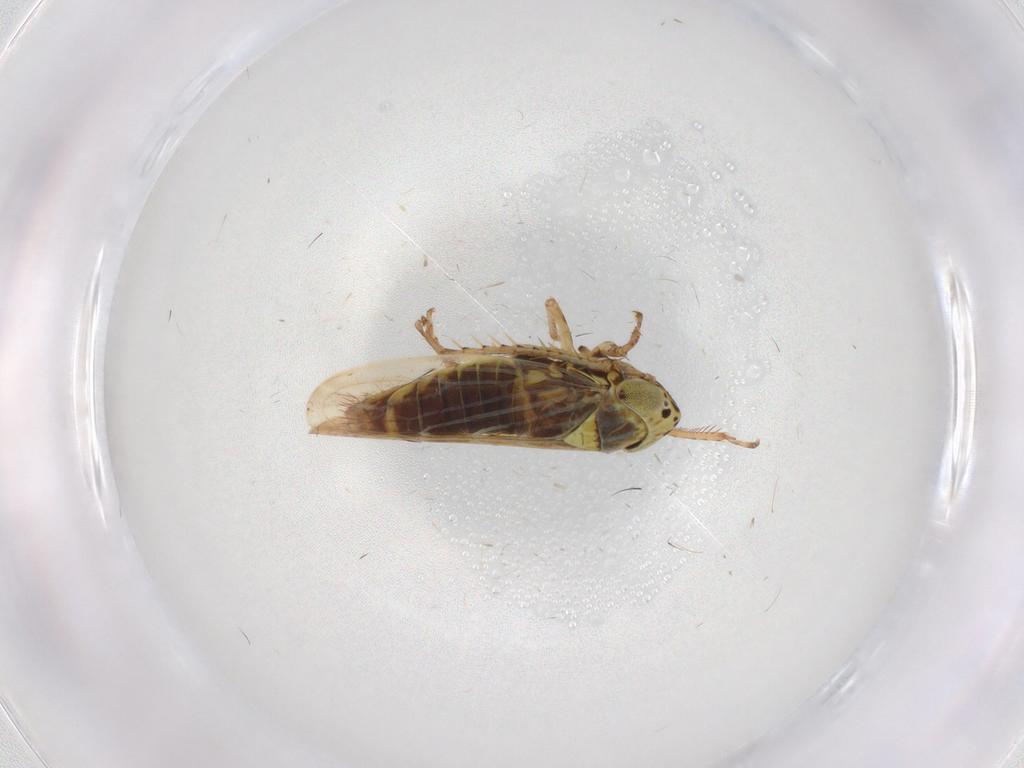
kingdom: Animalia
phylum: Arthropoda
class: Insecta
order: Hemiptera
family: Cicadellidae
